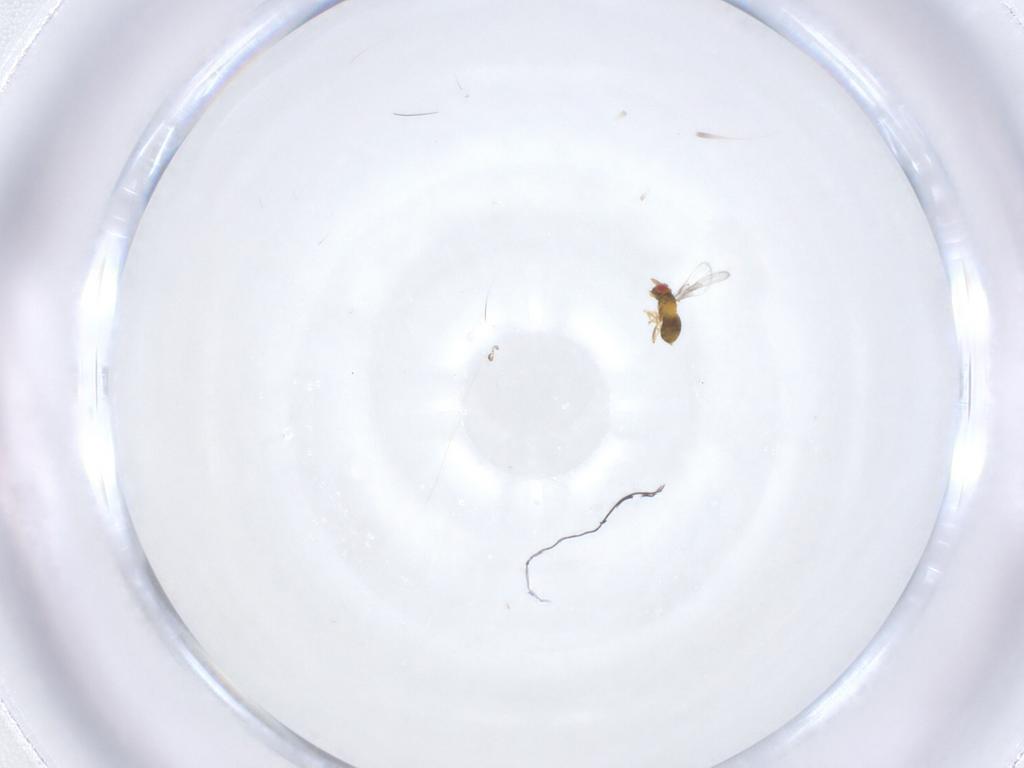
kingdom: Animalia
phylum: Arthropoda
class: Insecta
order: Hymenoptera
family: Trichogrammatidae
